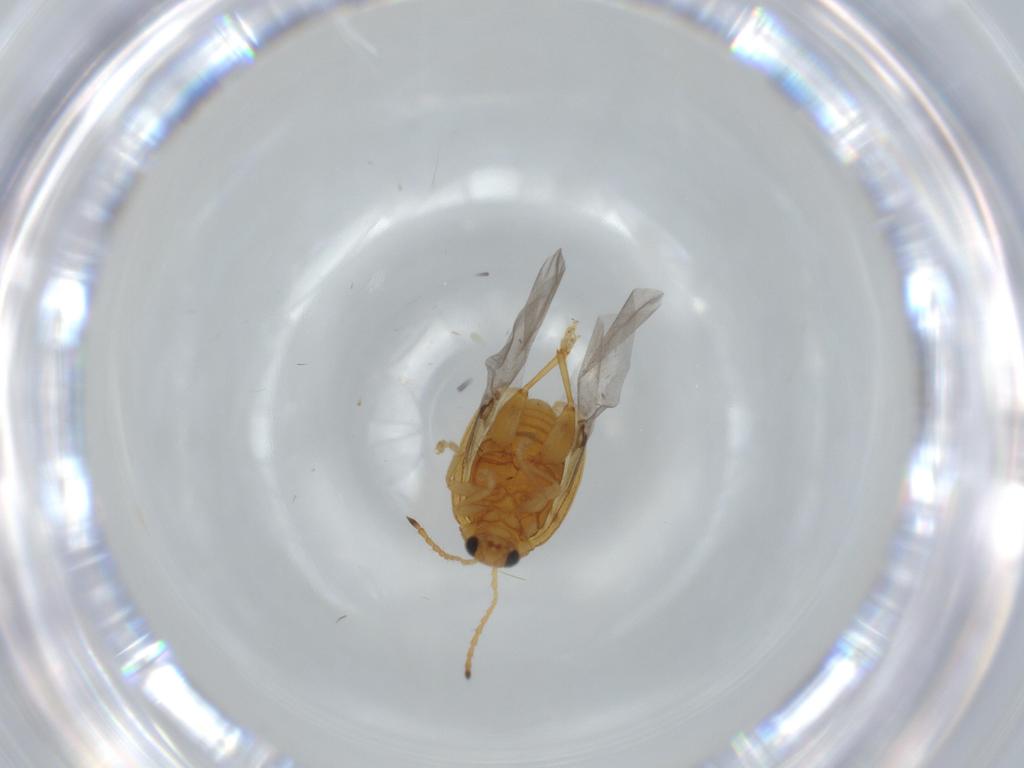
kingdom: Animalia
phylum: Arthropoda
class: Insecta
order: Coleoptera
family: Chrysomelidae
